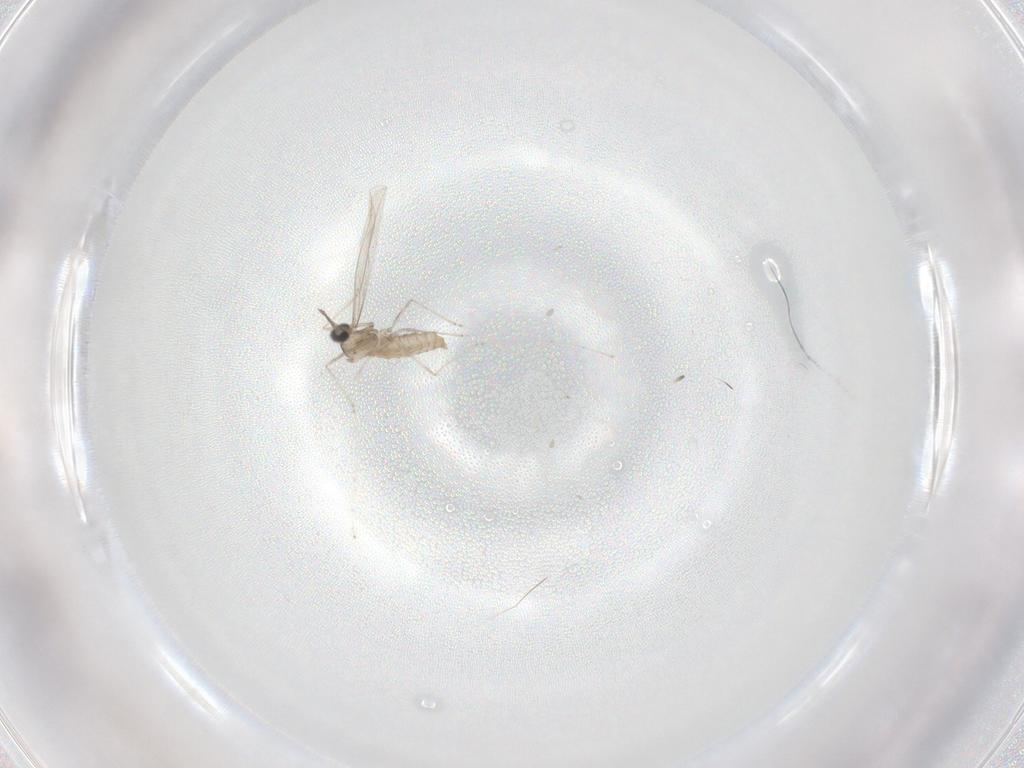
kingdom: Animalia
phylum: Arthropoda
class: Insecta
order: Diptera
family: Cecidomyiidae
